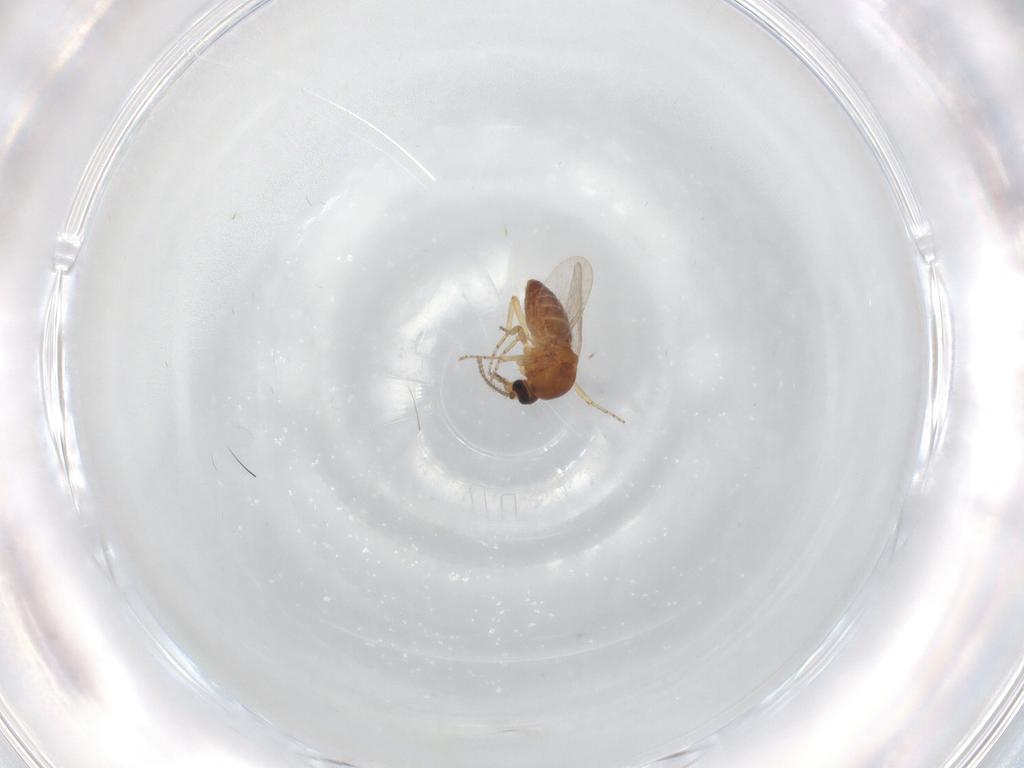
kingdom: Animalia
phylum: Arthropoda
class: Insecta
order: Diptera
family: Ceratopogonidae
